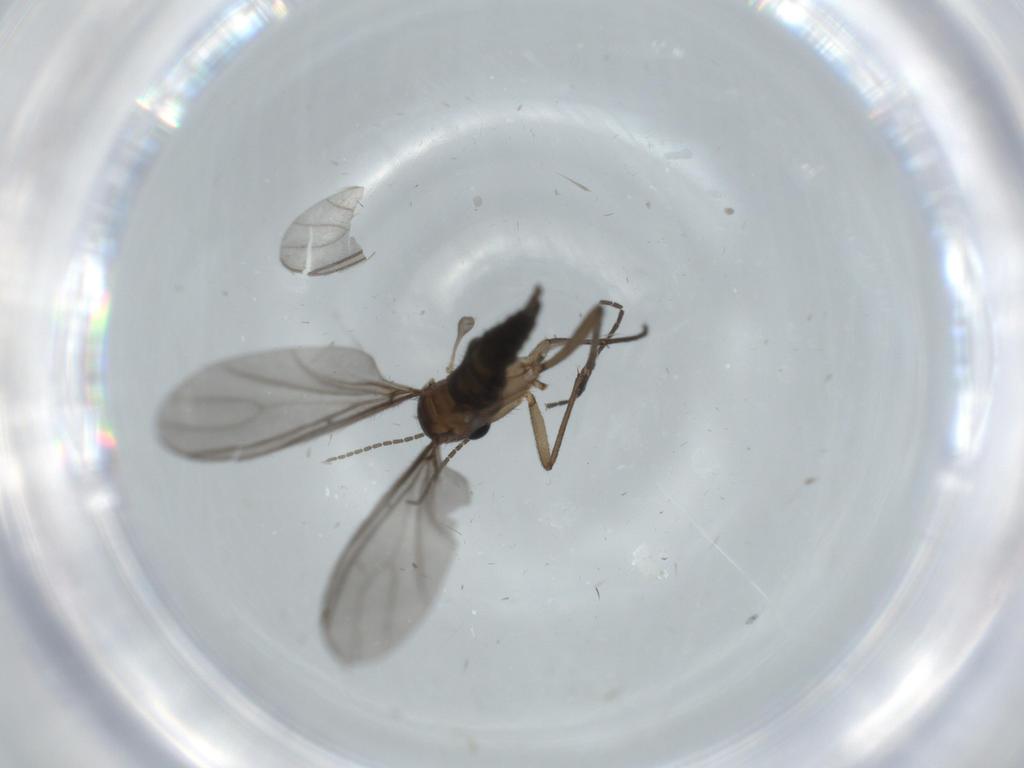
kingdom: Animalia
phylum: Arthropoda
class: Insecta
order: Diptera
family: Sciaridae
